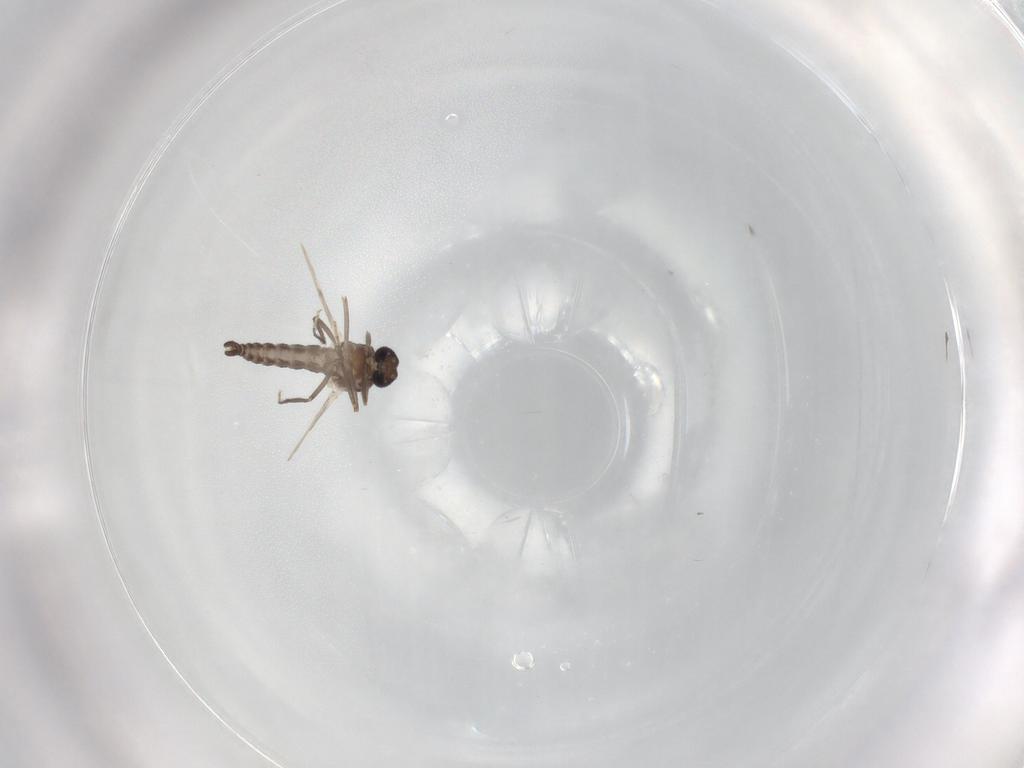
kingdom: Animalia
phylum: Arthropoda
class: Insecta
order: Diptera
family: Ceratopogonidae
